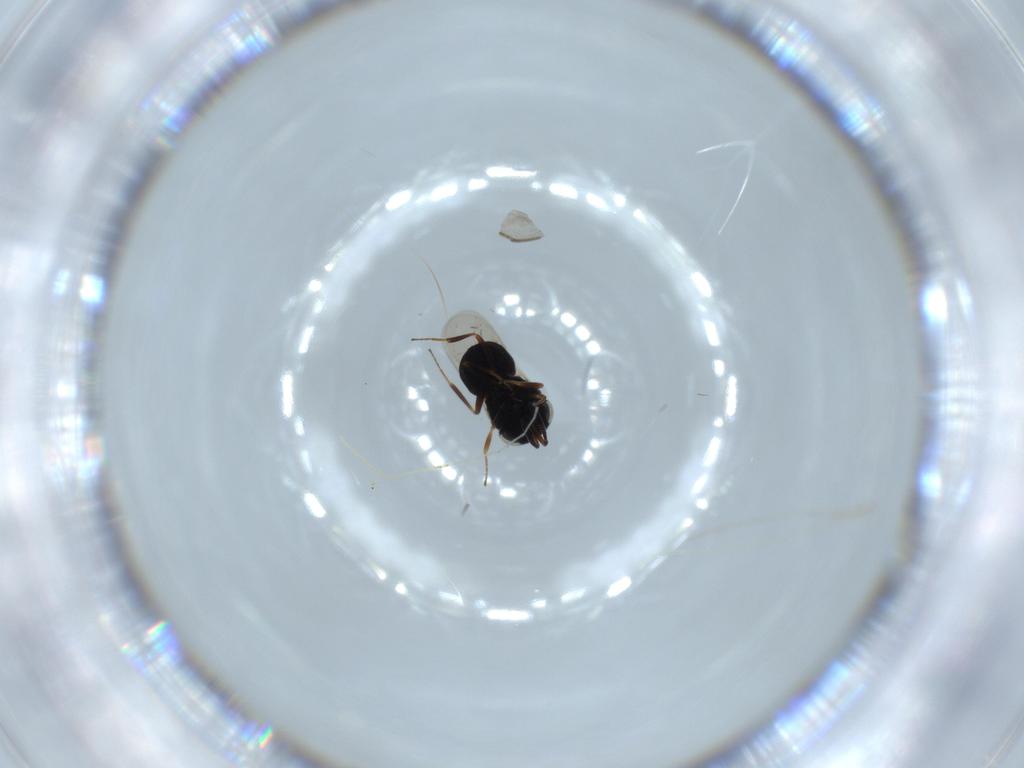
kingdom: Animalia
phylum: Arthropoda
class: Insecta
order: Hymenoptera
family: Scelionidae
